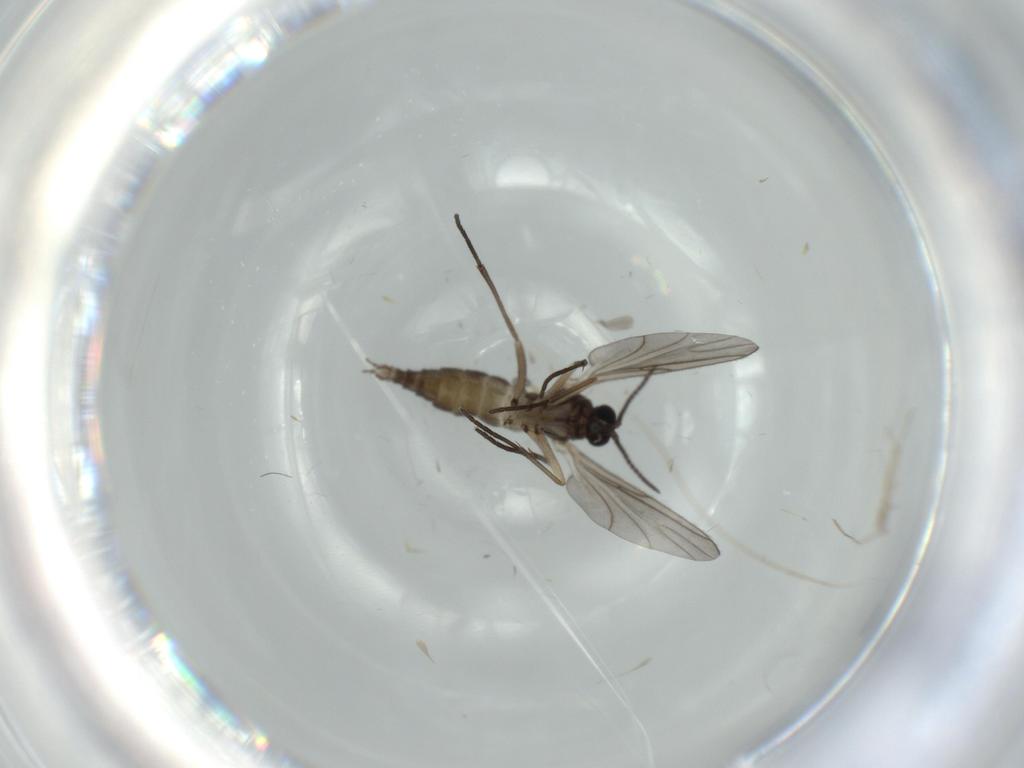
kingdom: Animalia
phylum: Arthropoda
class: Insecta
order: Diptera
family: Sciaridae
